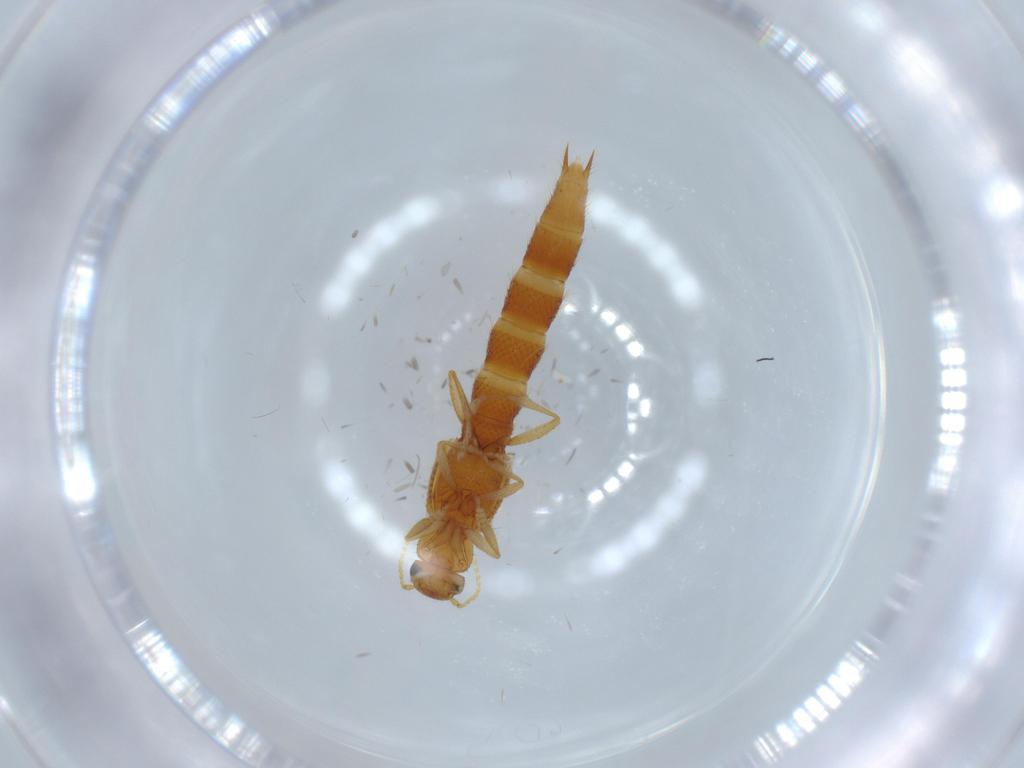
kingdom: Animalia
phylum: Arthropoda
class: Insecta
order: Coleoptera
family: Staphylinidae
